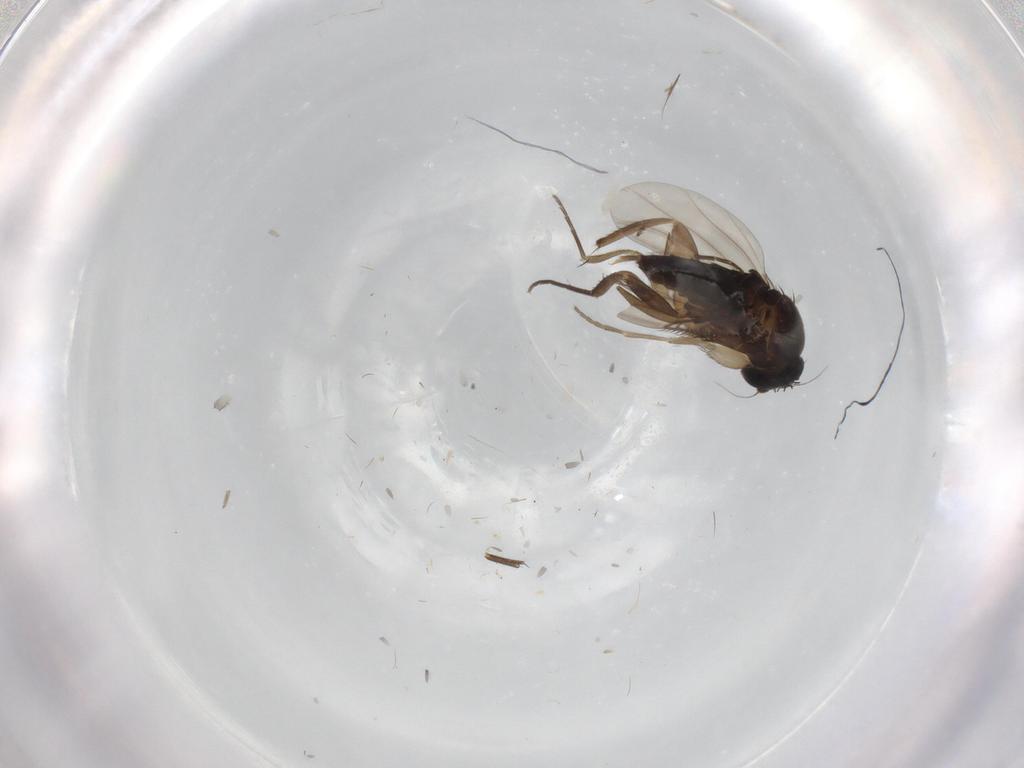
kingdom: Animalia
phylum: Arthropoda
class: Insecta
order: Diptera
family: Phoridae
